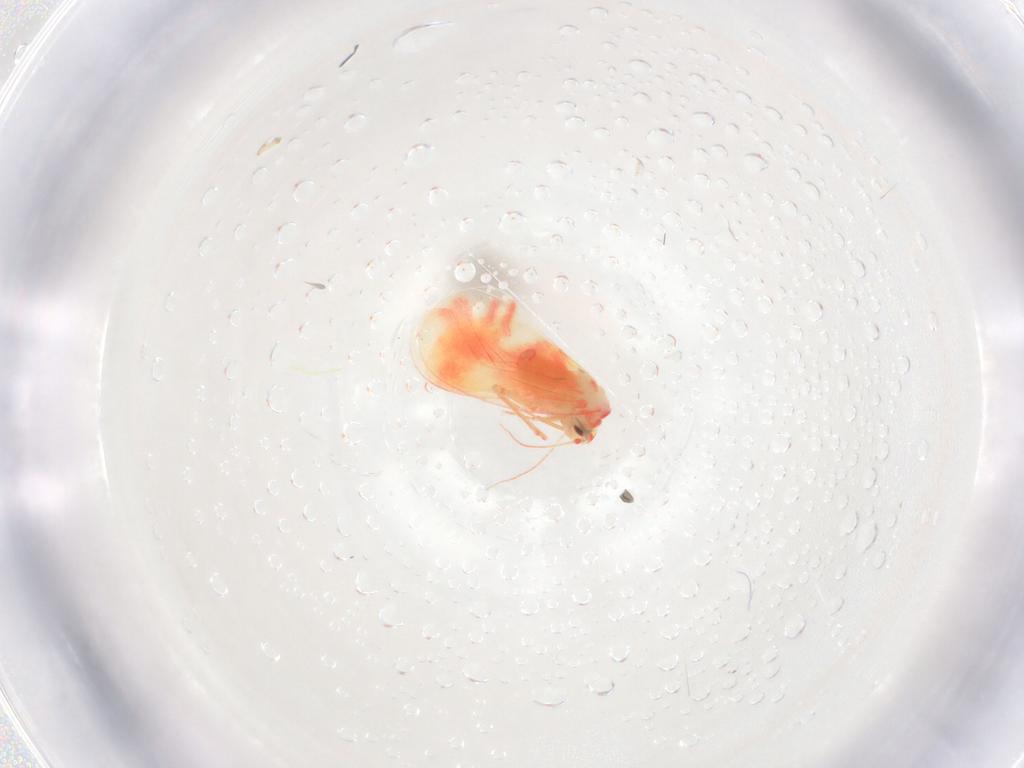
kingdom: Animalia
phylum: Arthropoda
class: Insecta
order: Hemiptera
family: Aleyrodidae
